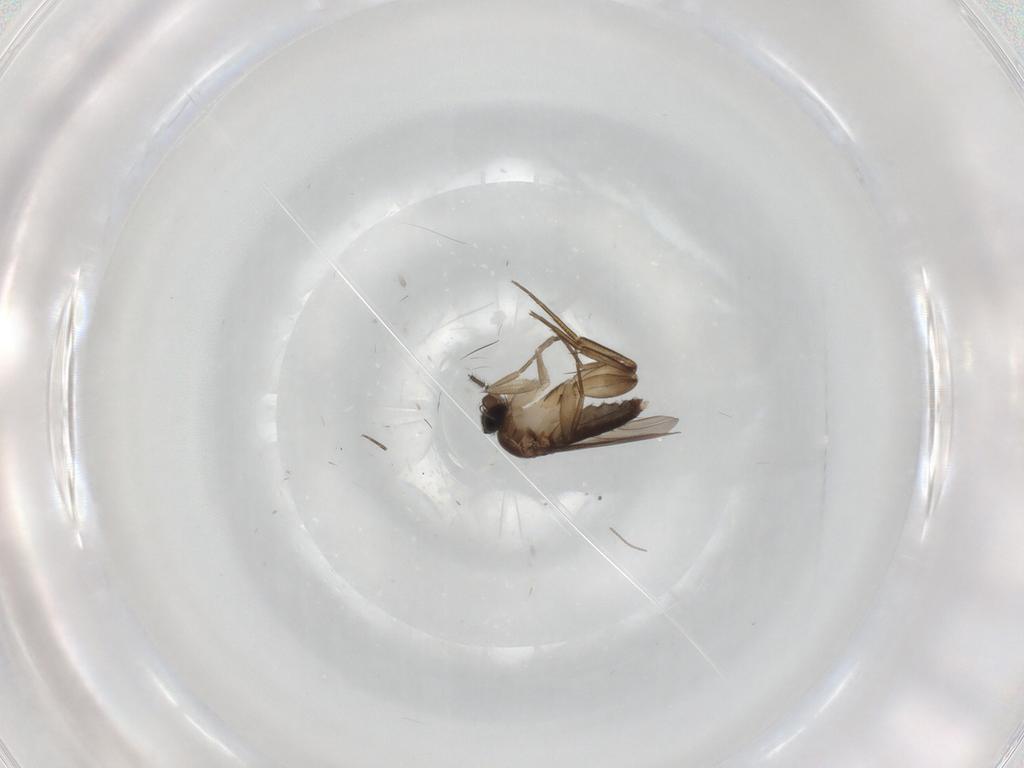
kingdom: Animalia
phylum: Arthropoda
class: Insecta
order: Diptera
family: Phoridae
